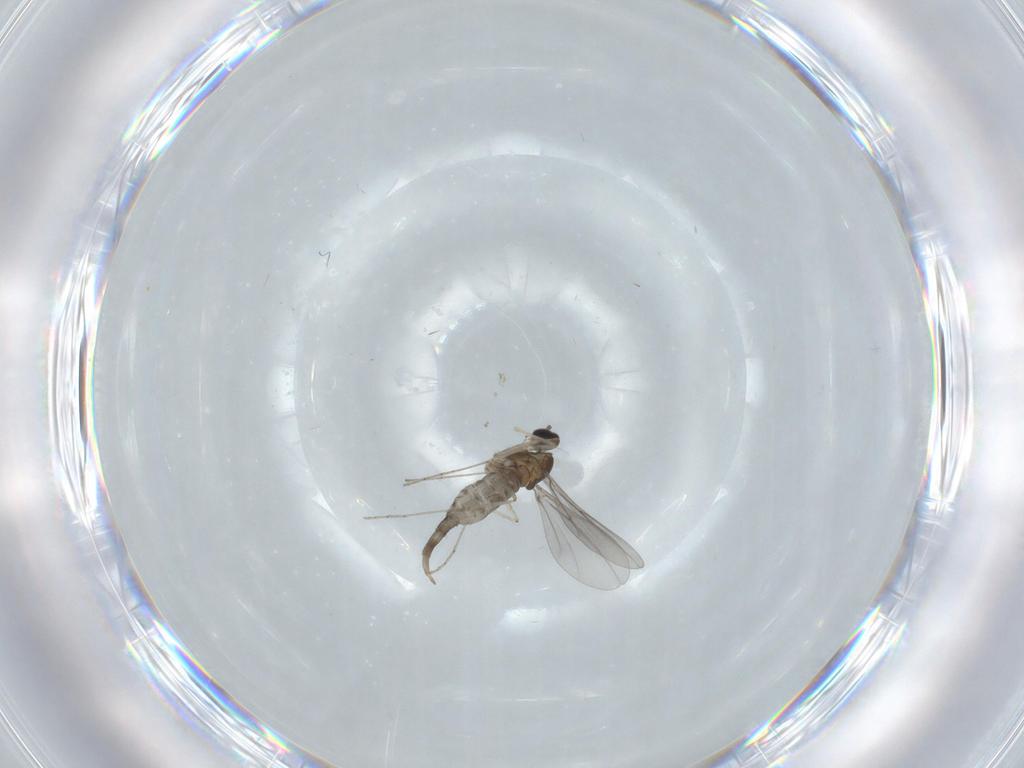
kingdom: Animalia
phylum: Arthropoda
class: Insecta
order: Diptera
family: Cecidomyiidae
